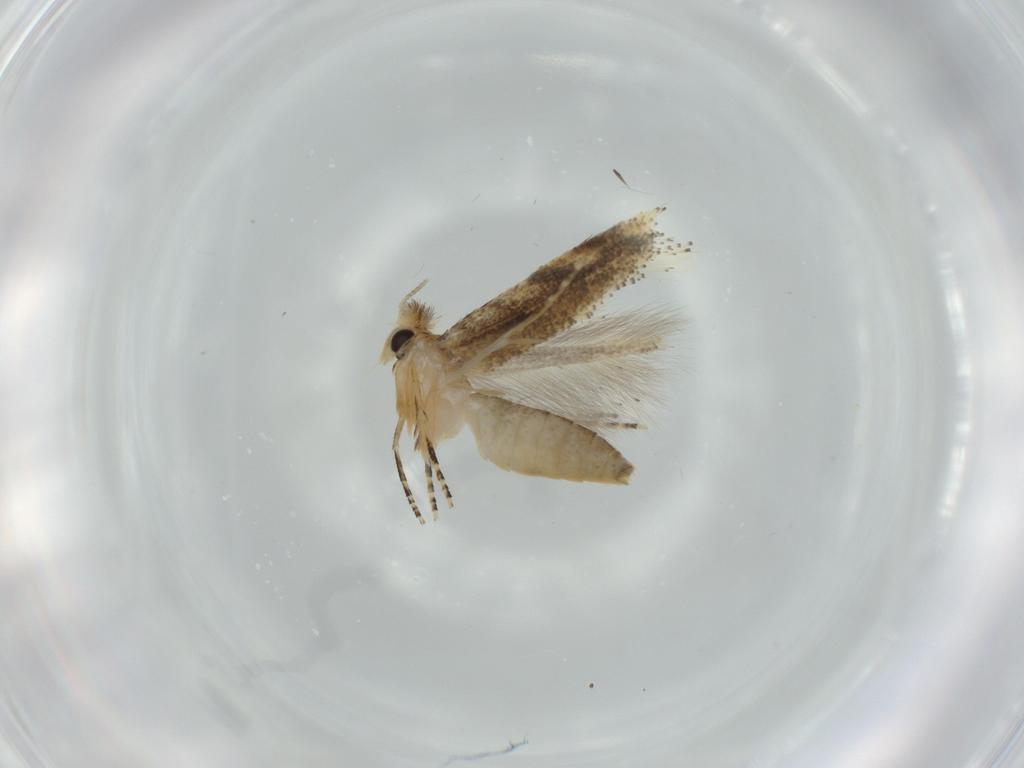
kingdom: Animalia
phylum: Arthropoda
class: Insecta
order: Lepidoptera
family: Bucculatricidae
